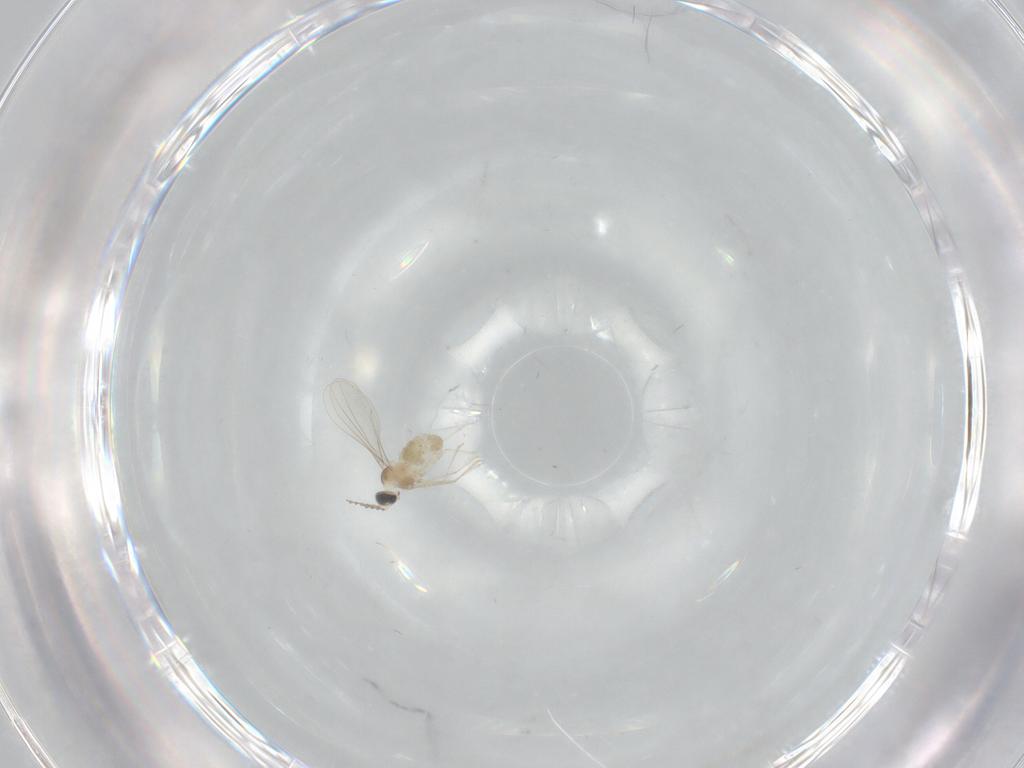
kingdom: Animalia
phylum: Arthropoda
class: Insecta
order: Diptera
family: Cecidomyiidae
